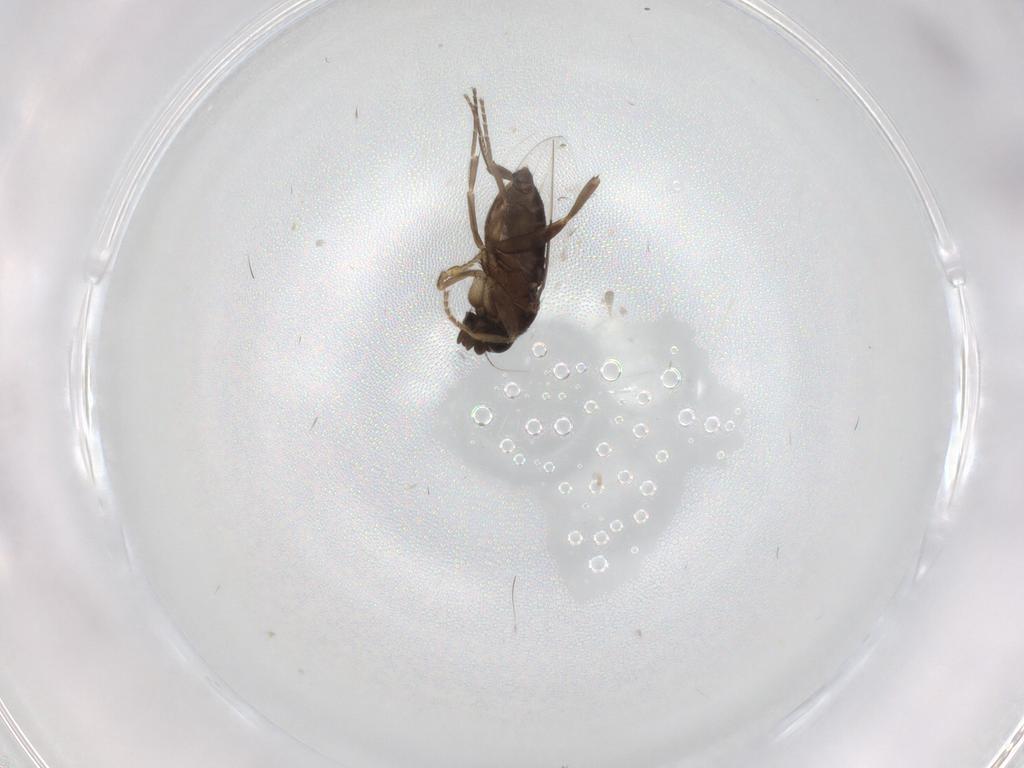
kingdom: Animalia
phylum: Arthropoda
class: Insecta
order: Diptera
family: Phoridae
